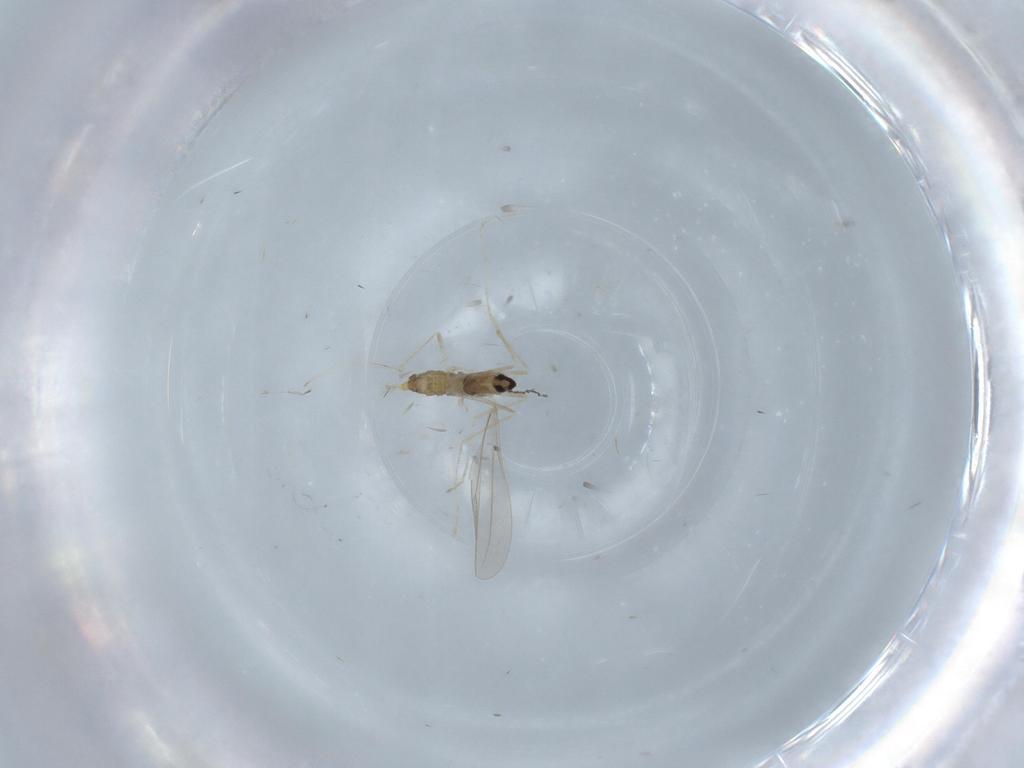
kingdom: Animalia
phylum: Arthropoda
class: Insecta
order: Diptera
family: Cecidomyiidae
